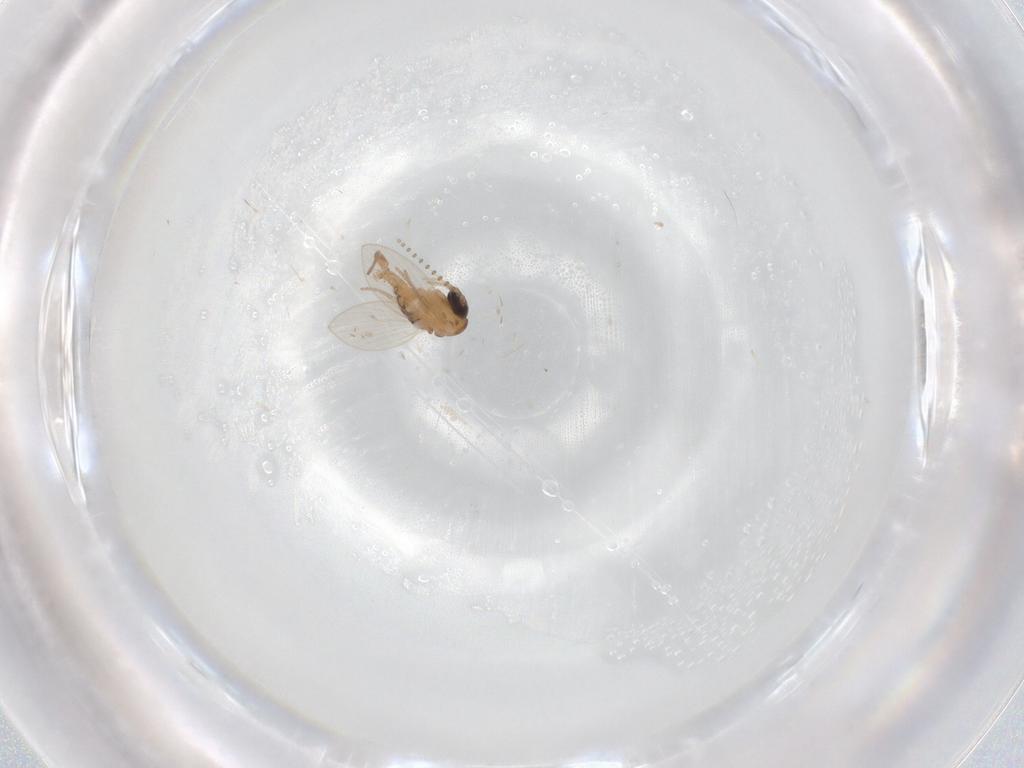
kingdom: Animalia
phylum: Arthropoda
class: Insecta
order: Diptera
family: Psychodidae
